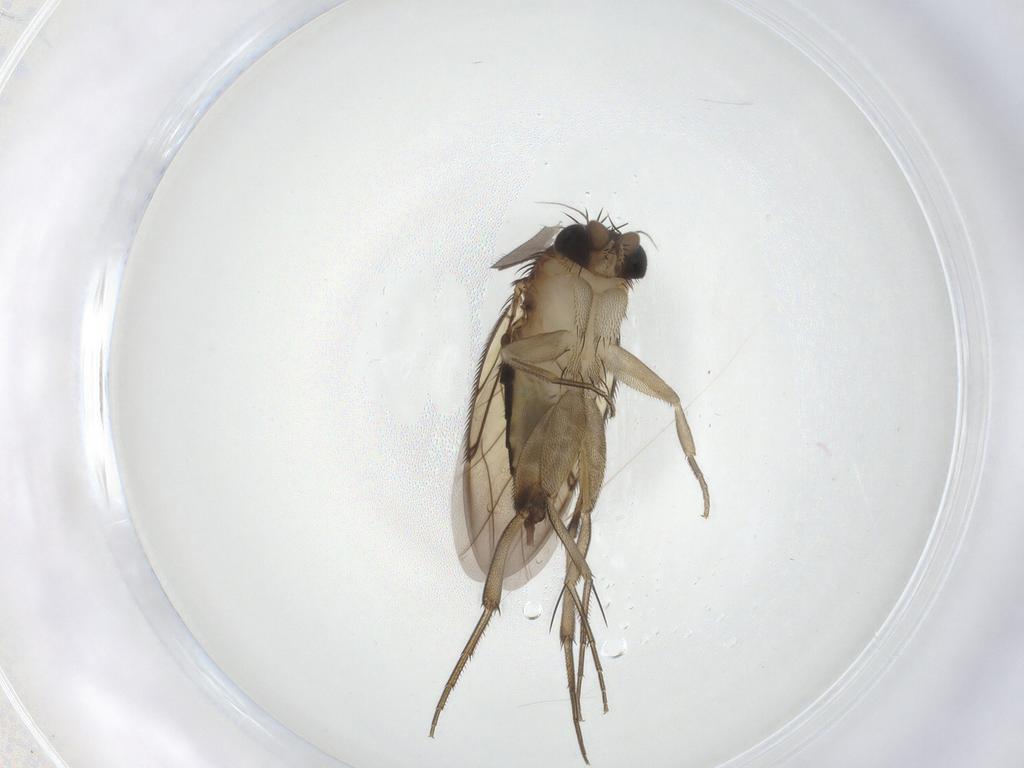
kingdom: Animalia
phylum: Arthropoda
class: Insecta
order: Diptera
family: Phoridae
